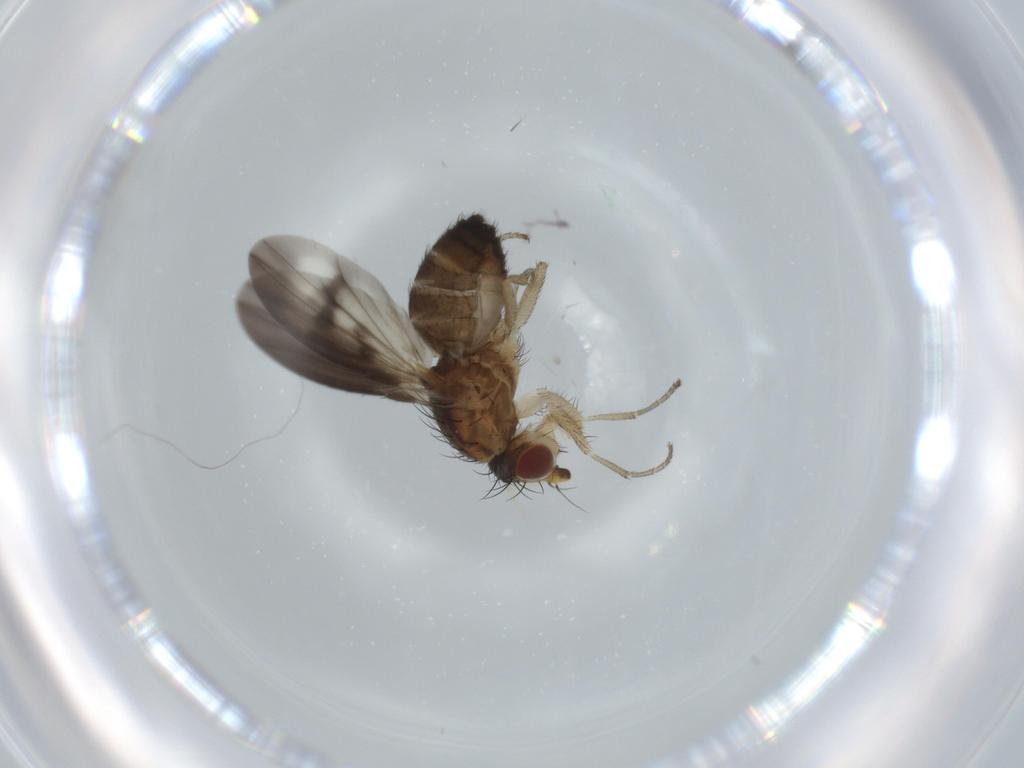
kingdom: Animalia
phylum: Arthropoda
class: Insecta
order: Diptera
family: Heleomyzidae
